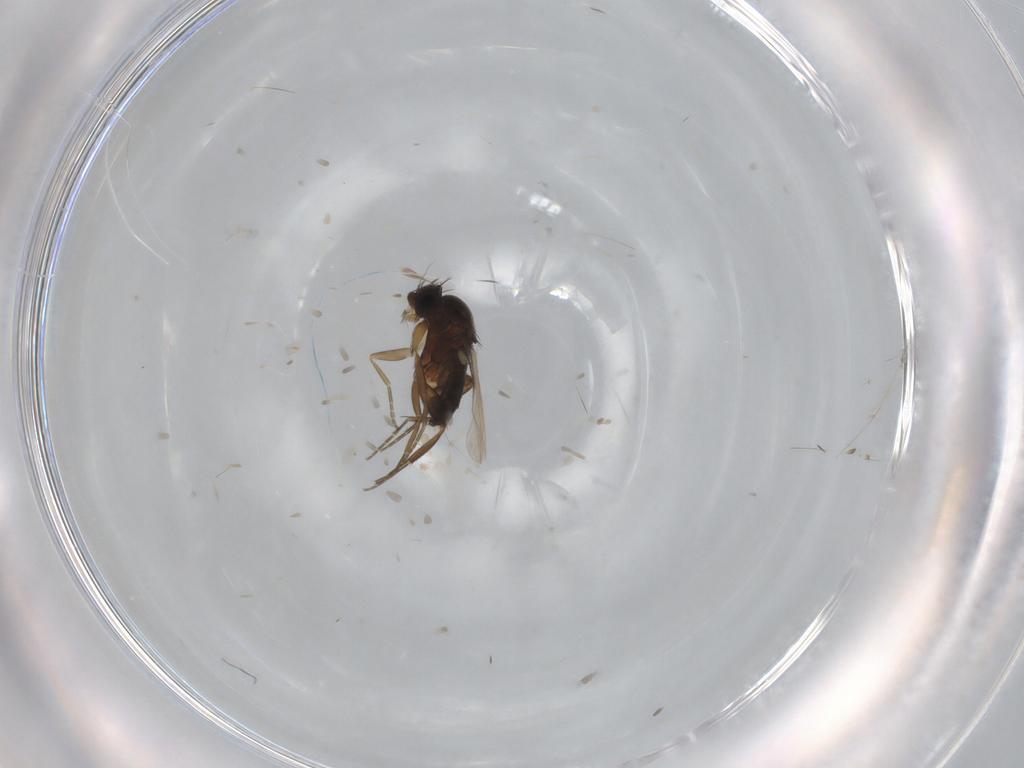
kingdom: Animalia
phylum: Arthropoda
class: Insecta
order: Diptera
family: Phoridae
